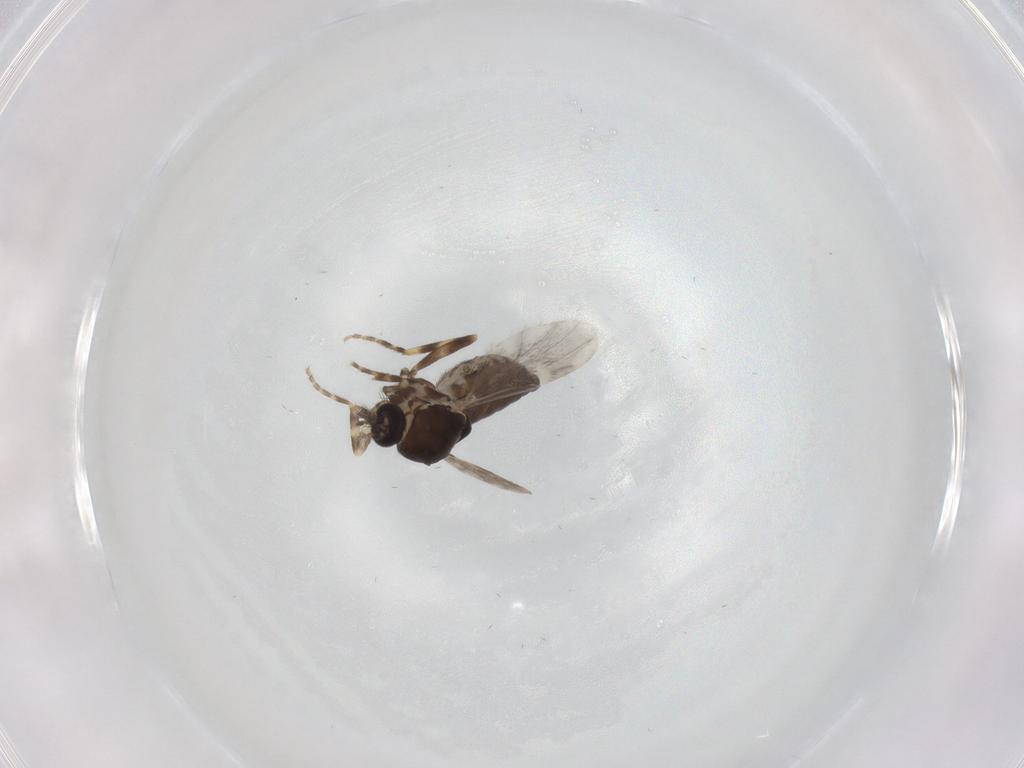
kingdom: Animalia
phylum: Arthropoda
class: Insecta
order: Diptera
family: Ceratopogonidae
